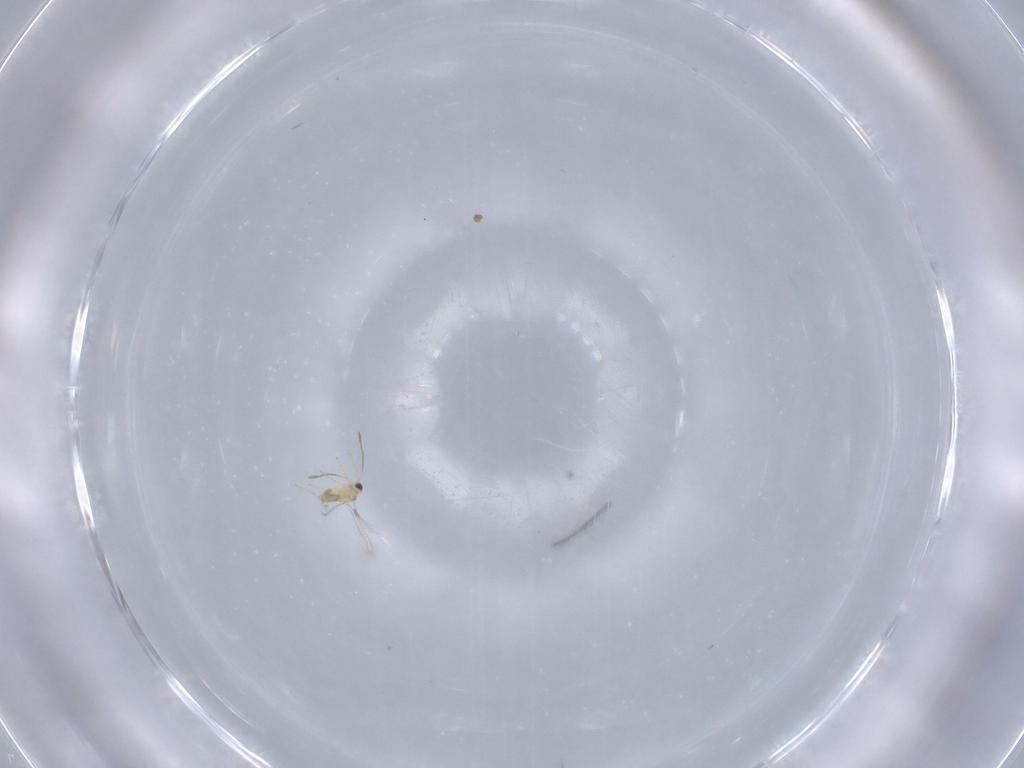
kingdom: Animalia
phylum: Arthropoda
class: Insecta
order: Hymenoptera
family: Mymaridae
